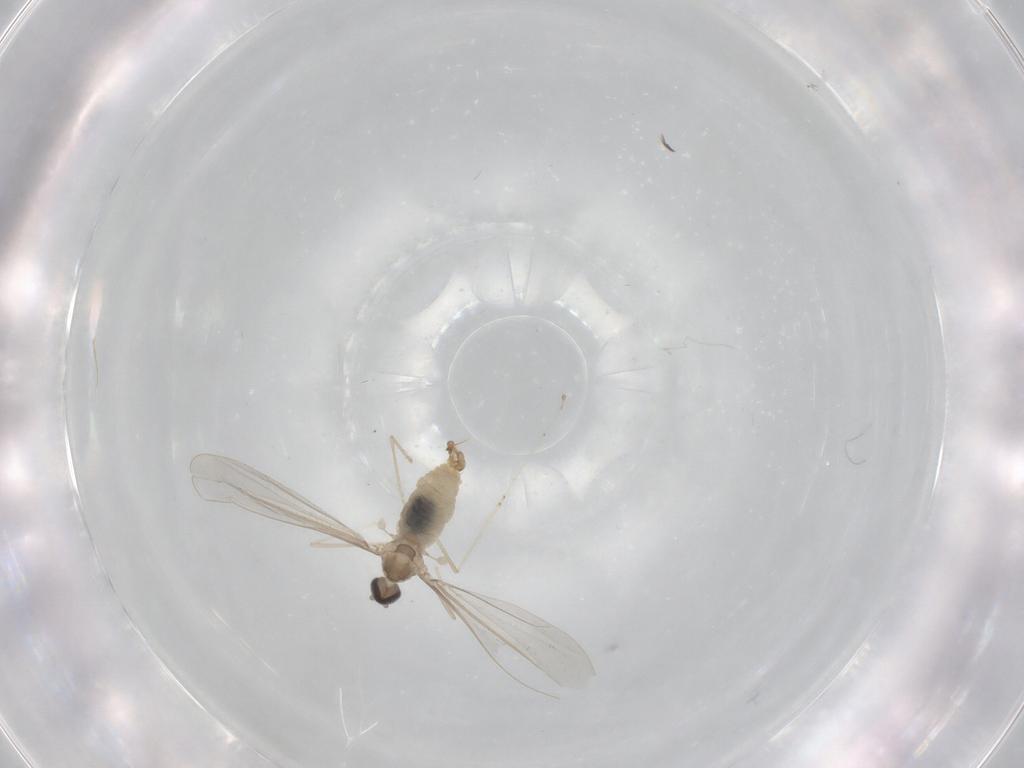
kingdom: Animalia
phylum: Arthropoda
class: Insecta
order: Diptera
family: Cecidomyiidae
